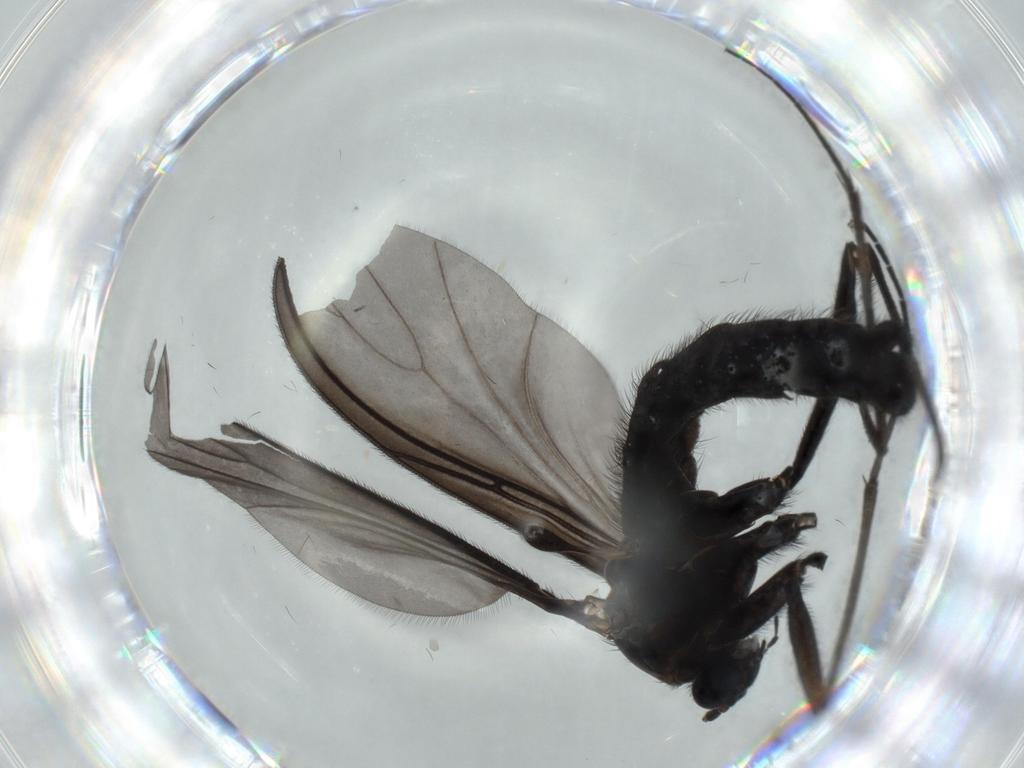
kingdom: Animalia
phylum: Arthropoda
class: Insecta
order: Diptera
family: Sciaridae
